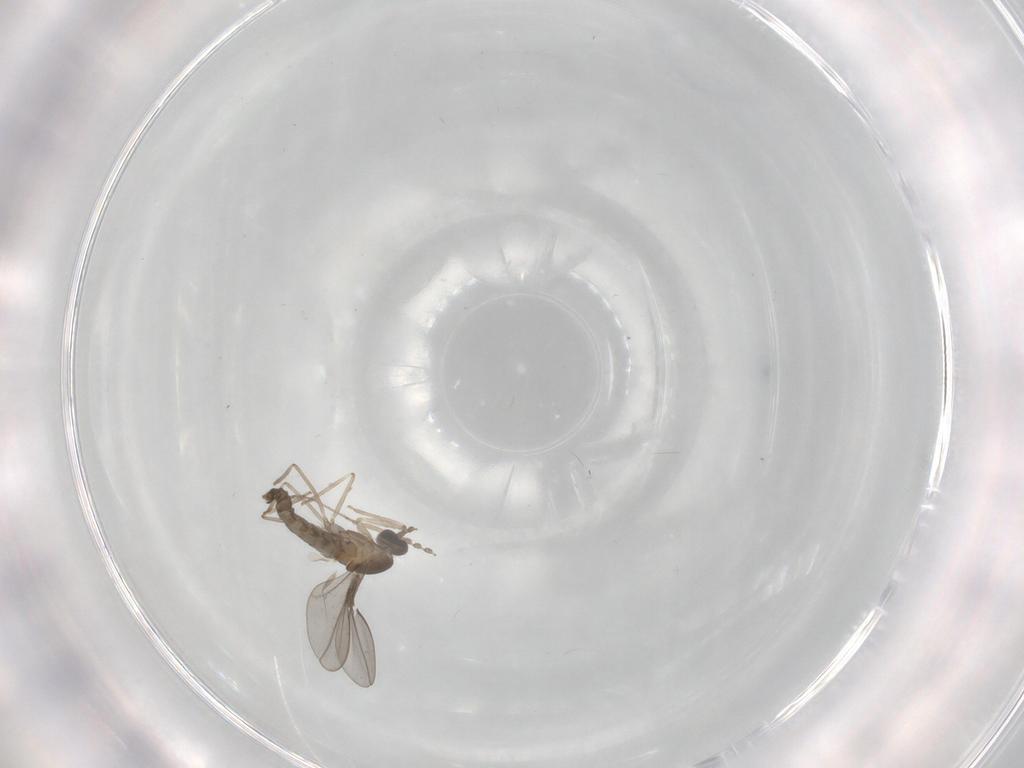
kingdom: Animalia
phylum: Arthropoda
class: Insecta
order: Diptera
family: Cecidomyiidae
